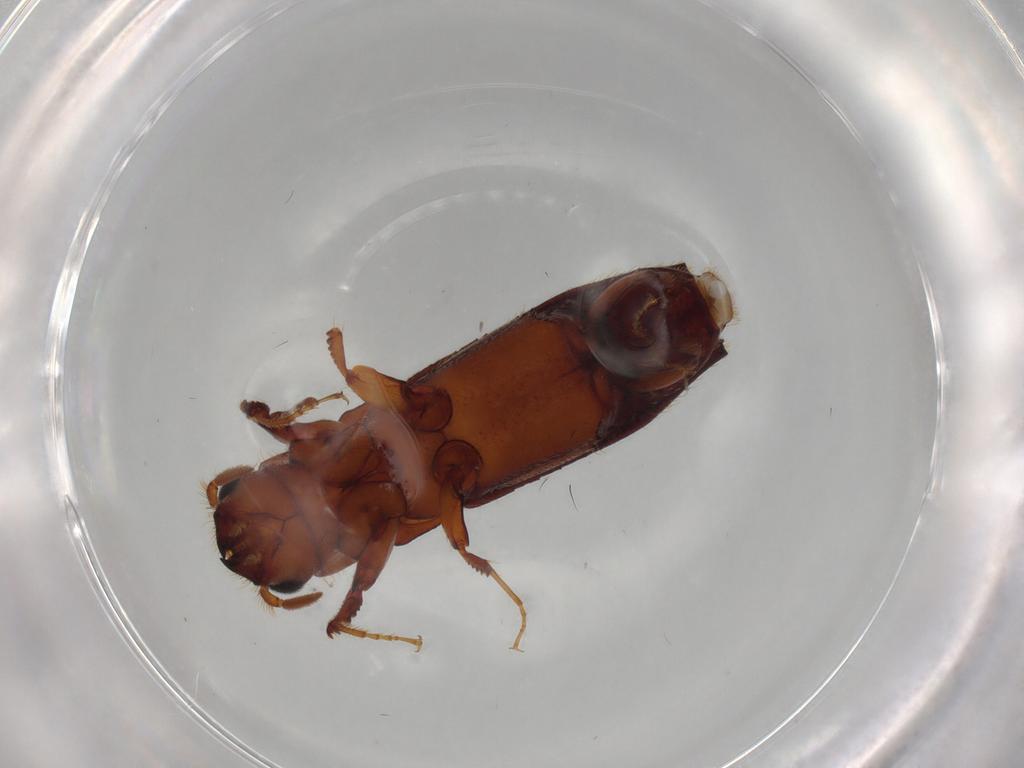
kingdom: Animalia
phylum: Arthropoda
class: Insecta
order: Coleoptera
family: Curculionidae
